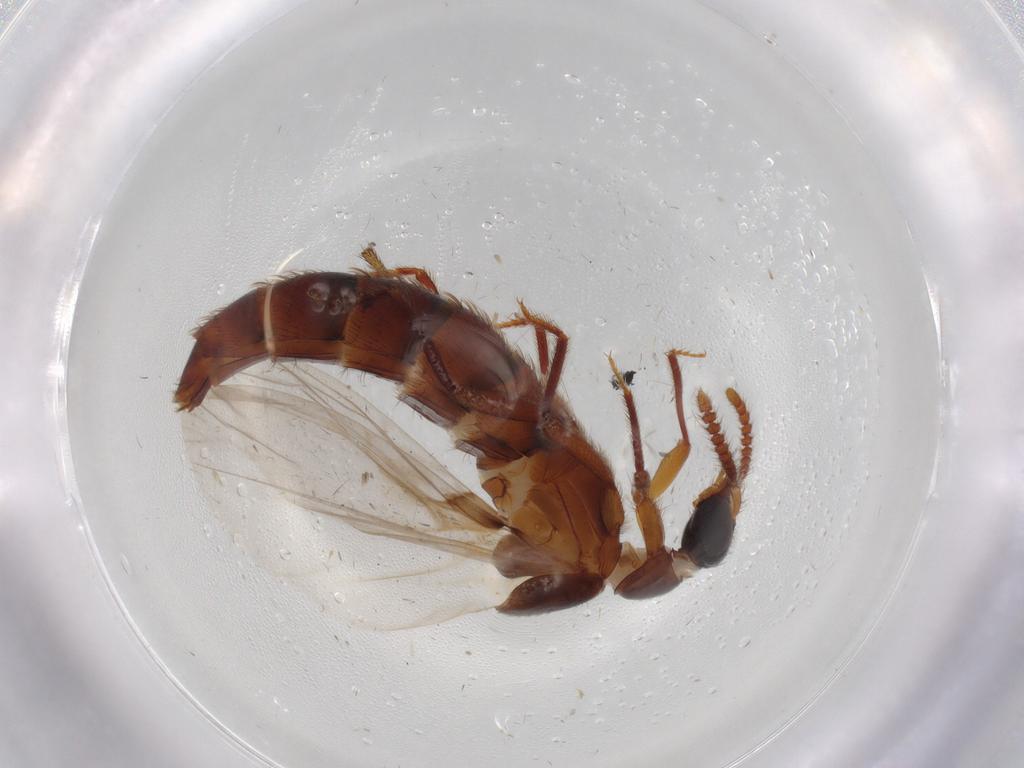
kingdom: Animalia
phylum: Arthropoda
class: Insecta
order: Coleoptera
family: Staphylinidae
